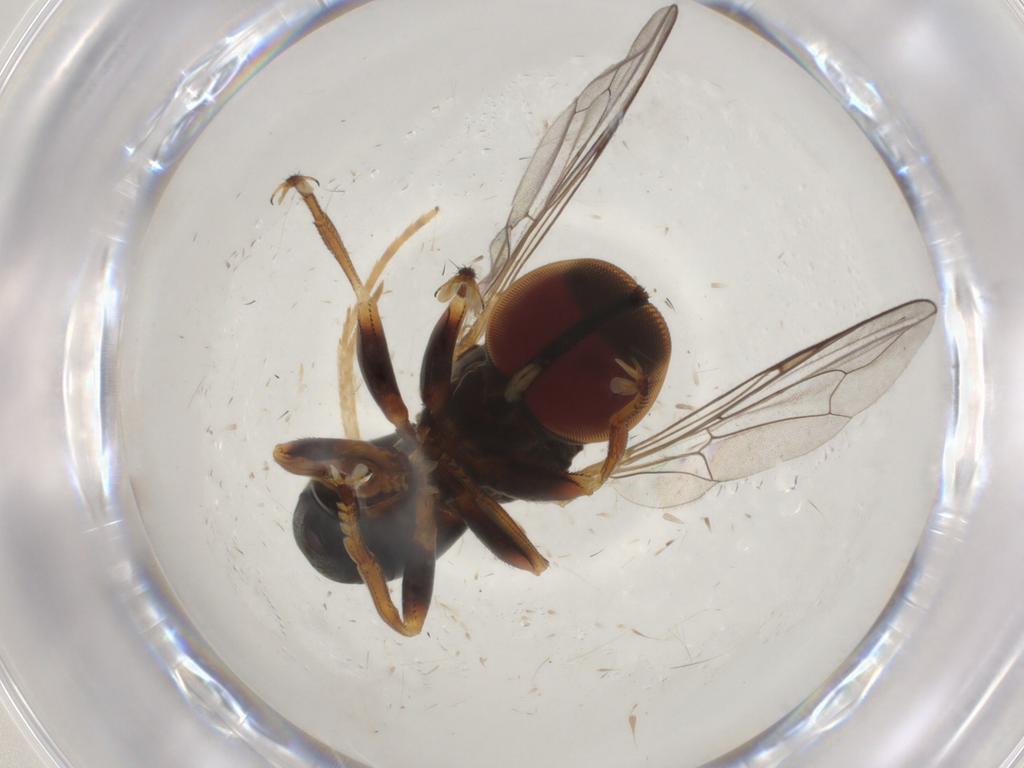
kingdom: Animalia
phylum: Arthropoda
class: Insecta
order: Diptera
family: Pipunculidae
